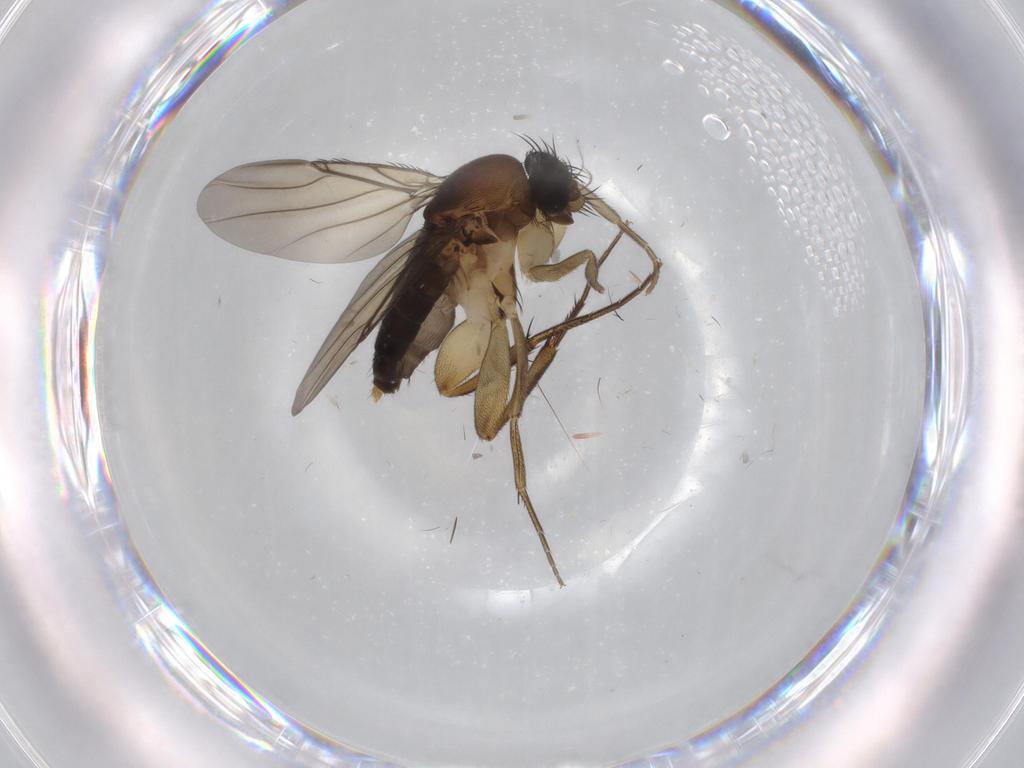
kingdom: Animalia
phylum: Arthropoda
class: Insecta
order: Diptera
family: Phoridae
